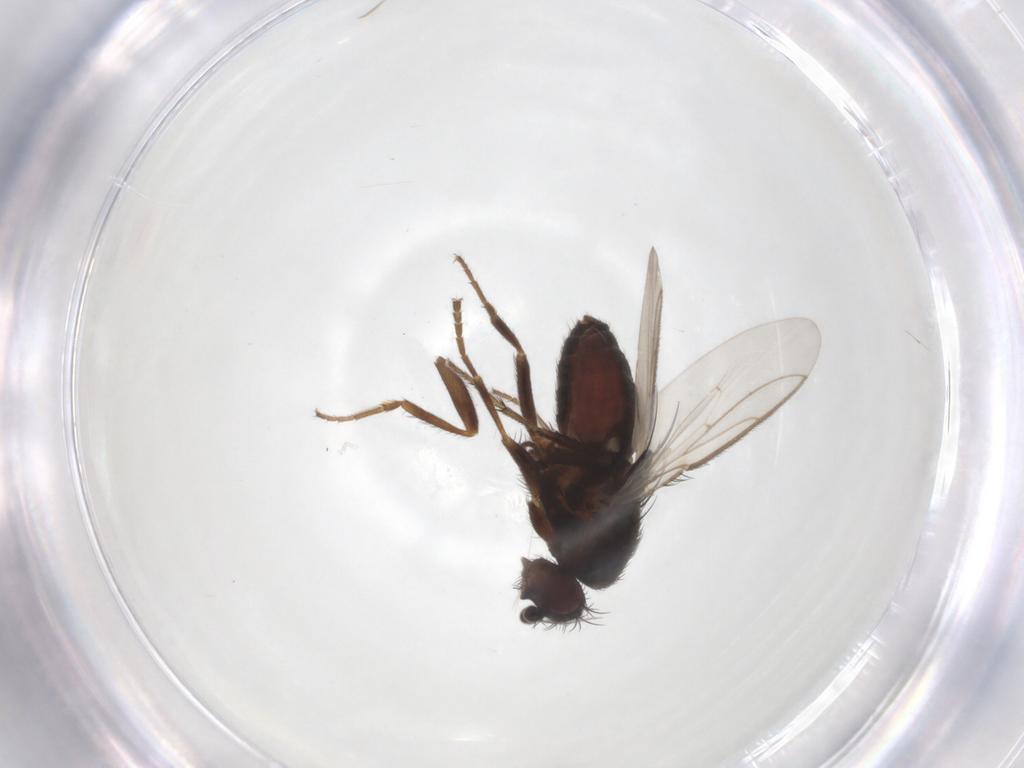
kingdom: Animalia
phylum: Arthropoda
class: Insecta
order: Diptera
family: Sphaeroceridae
